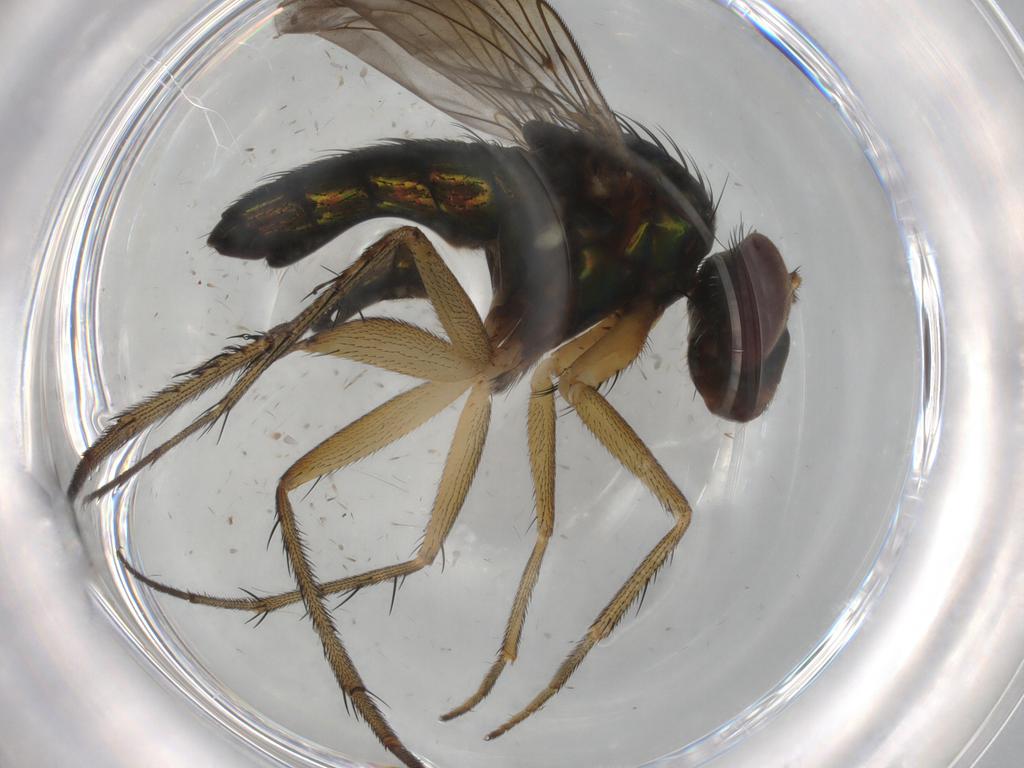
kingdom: Animalia
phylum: Arthropoda
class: Insecta
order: Diptera
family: Dolichopodidae
